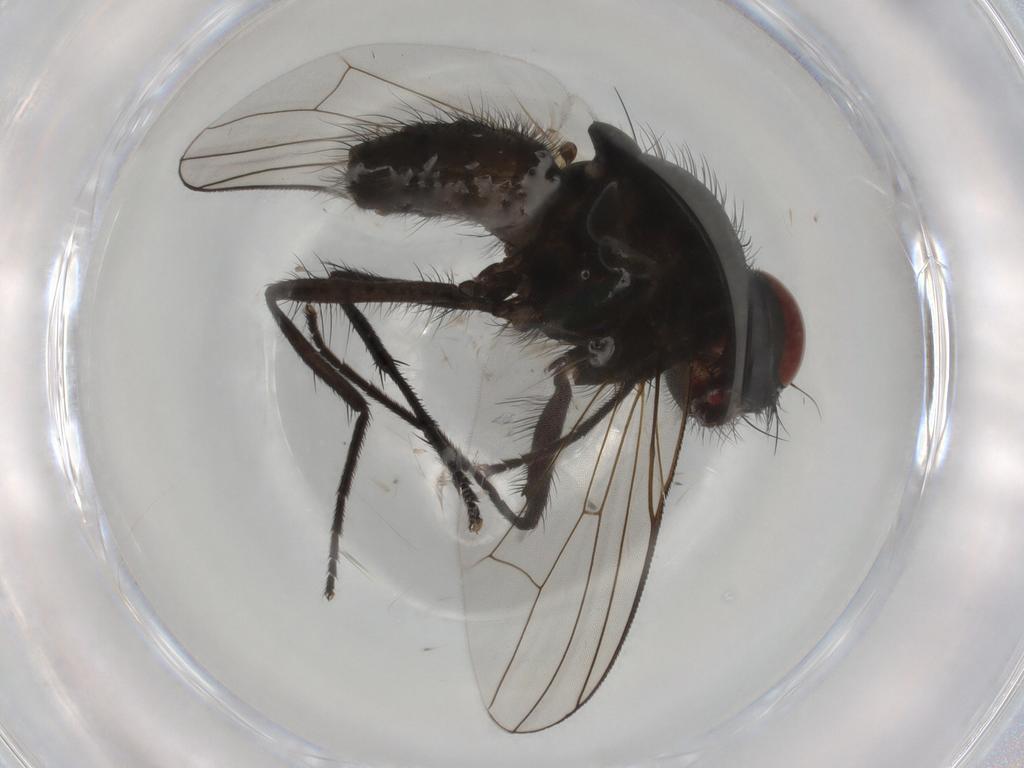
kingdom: Animalia
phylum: Arthropoda
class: Insecta
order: Diptera
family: Muscidae
